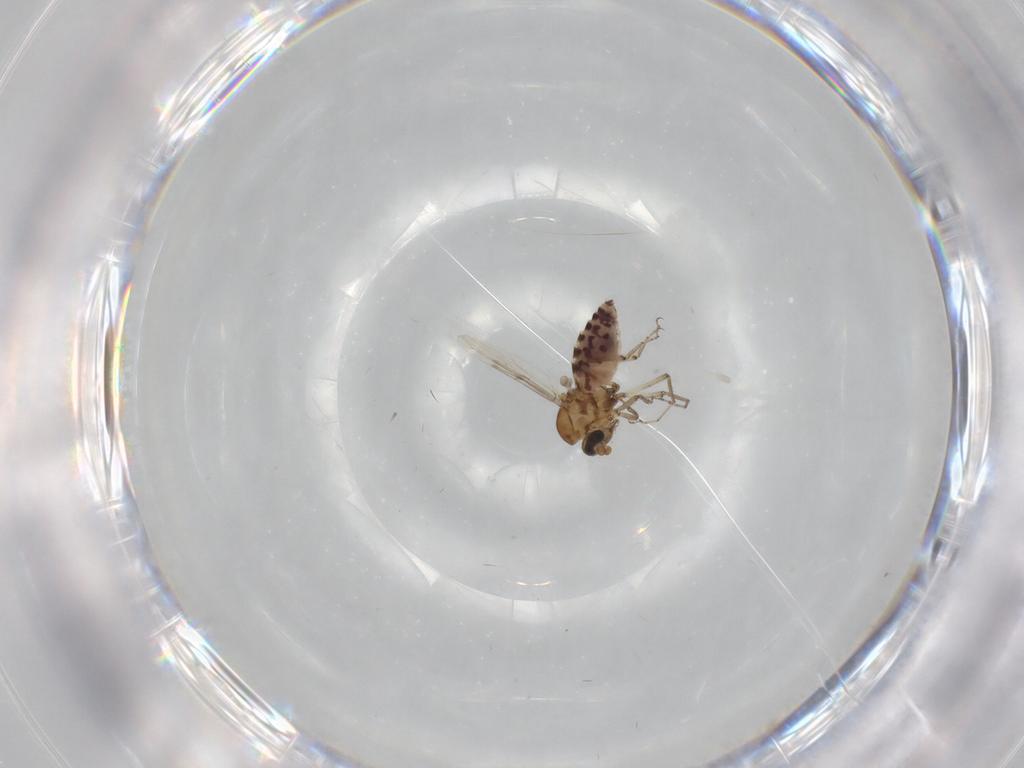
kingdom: Animalia
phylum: Arthropoda
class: Insecta
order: Diptera
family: Ceratopogonidae
